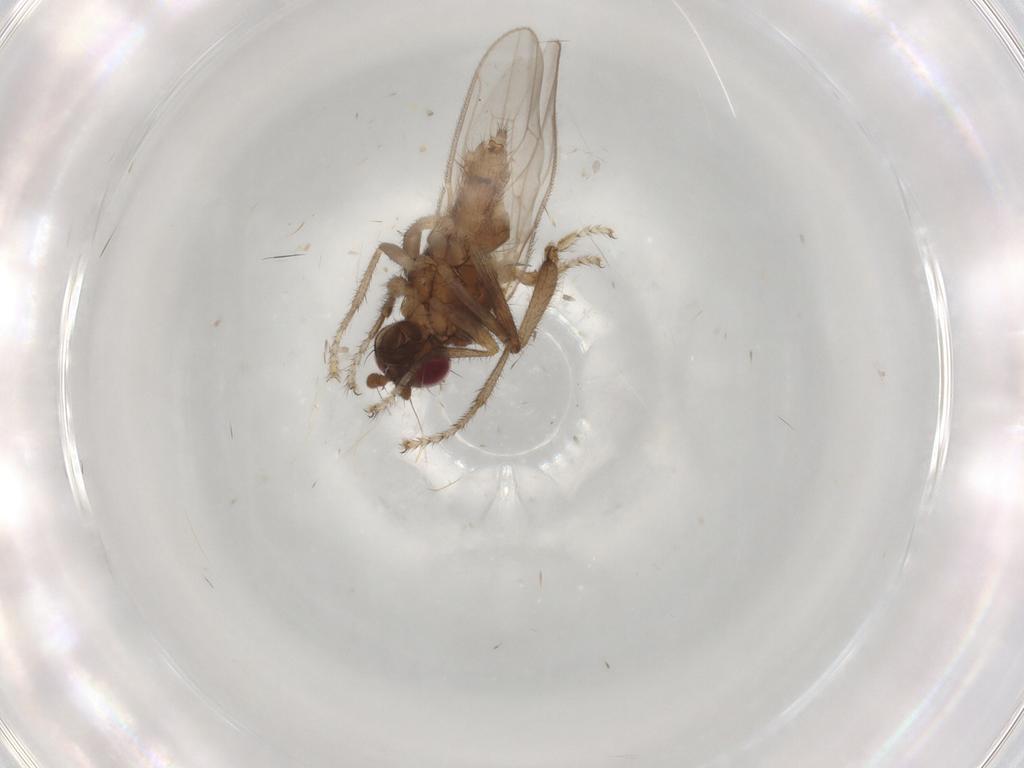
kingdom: Animalia
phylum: Arthropoda
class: Insecta
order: Diptera
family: Sphaeroceridae
